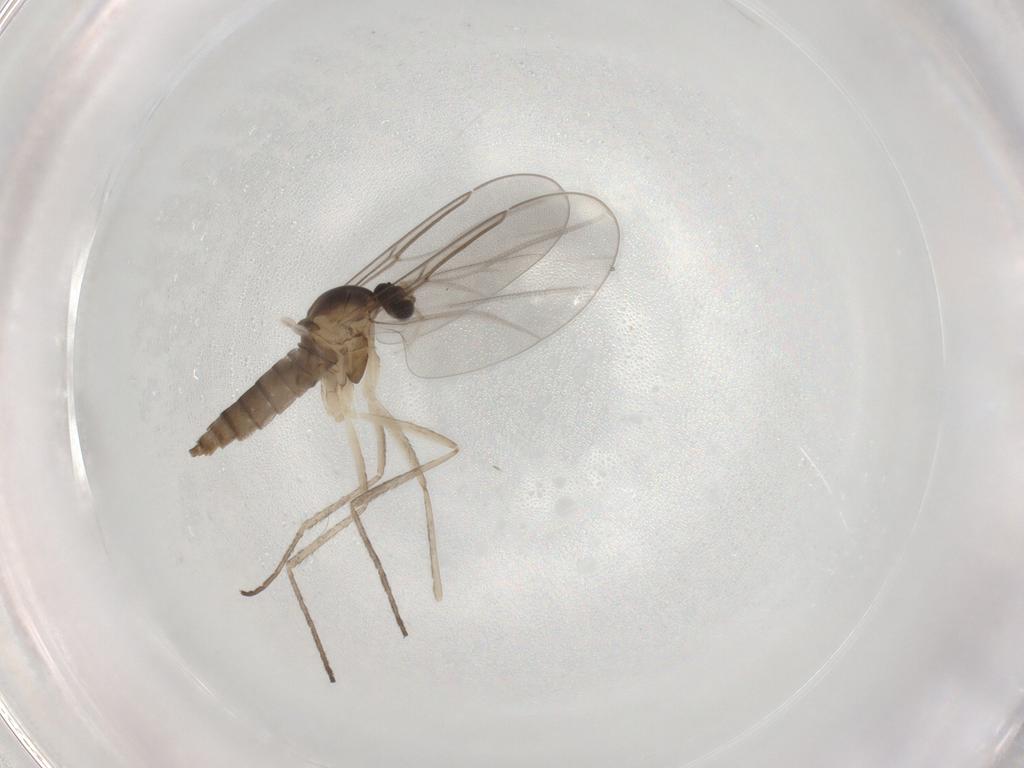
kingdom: Animalia
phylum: Arthropoda
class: Insecta
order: Diptera
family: Cecidomyiidae
